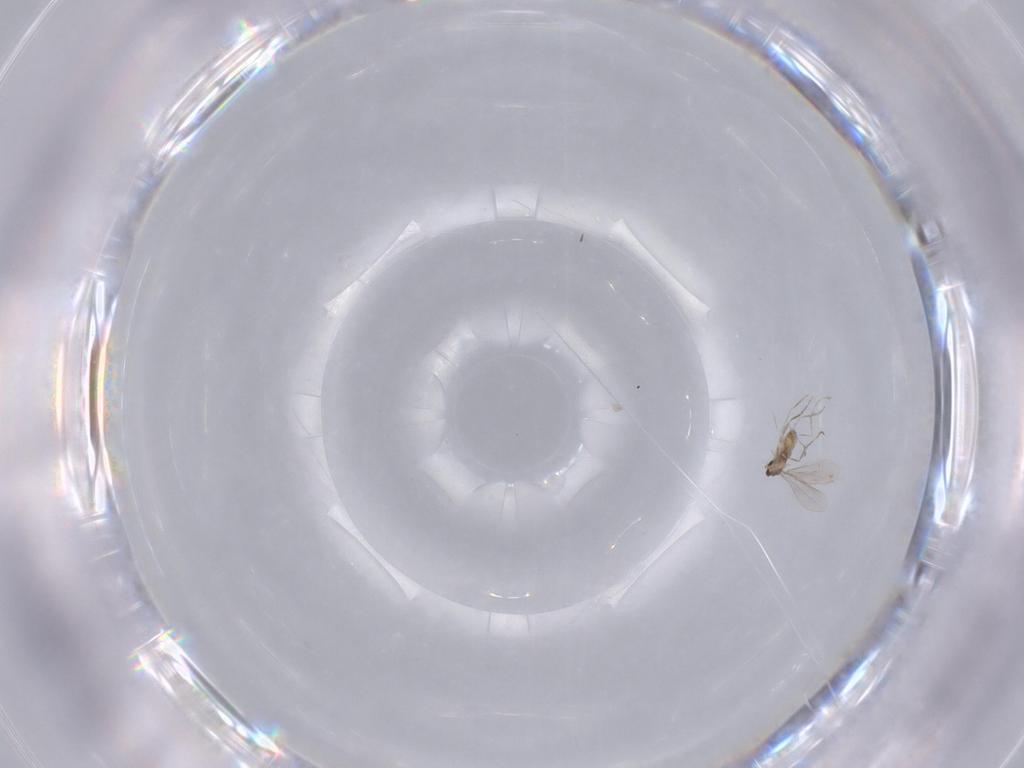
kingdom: Animalia
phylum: Arthropoda
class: Insecta
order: Diptera
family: Cecidomyiidae
